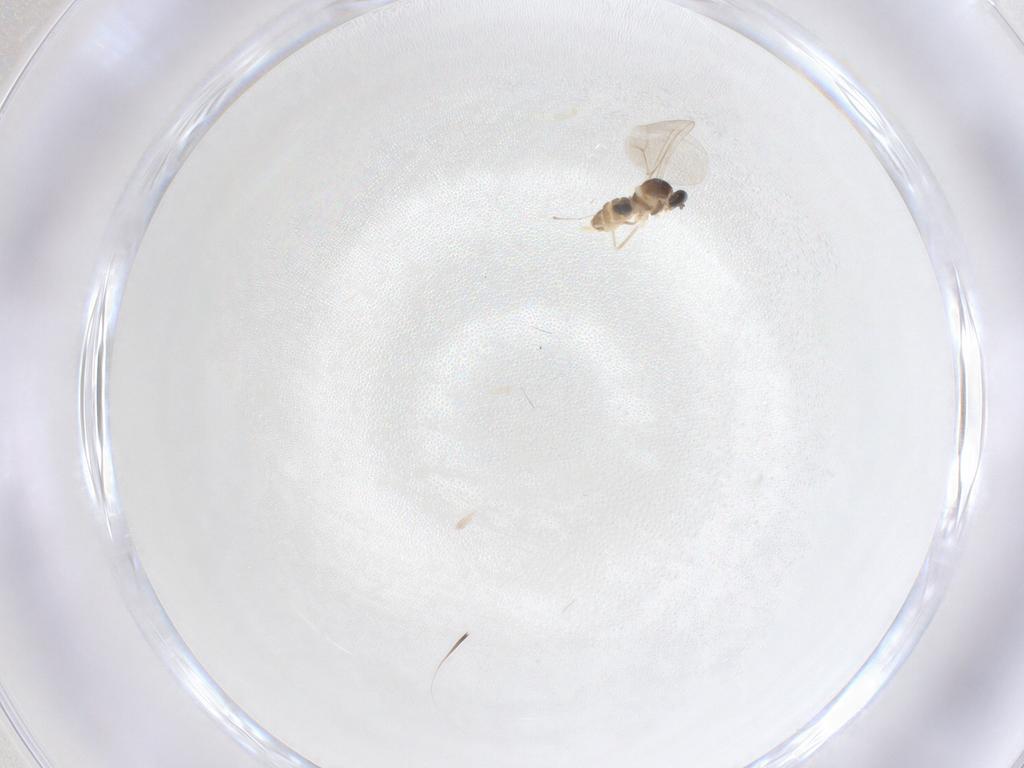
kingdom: Animalia
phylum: Arthropoda
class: Insecta
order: Diptera
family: Cecidomyiidae
